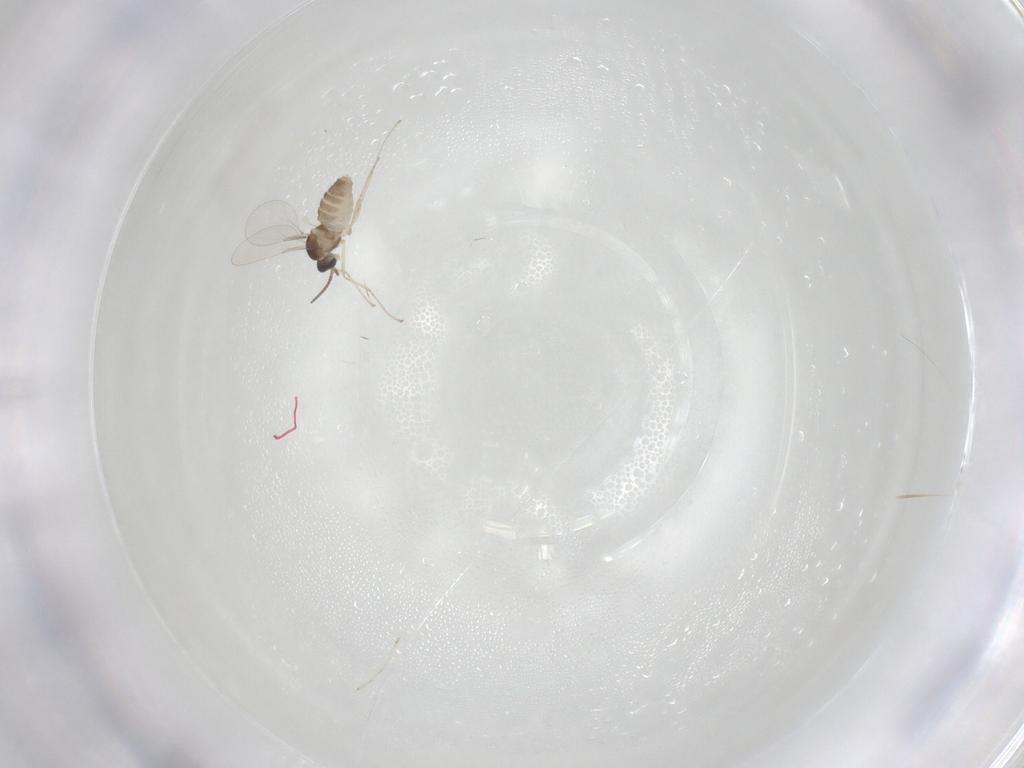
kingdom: Animalia
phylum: Arthropoda
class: Insecta
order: Diptera
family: Cecidomyiidae
